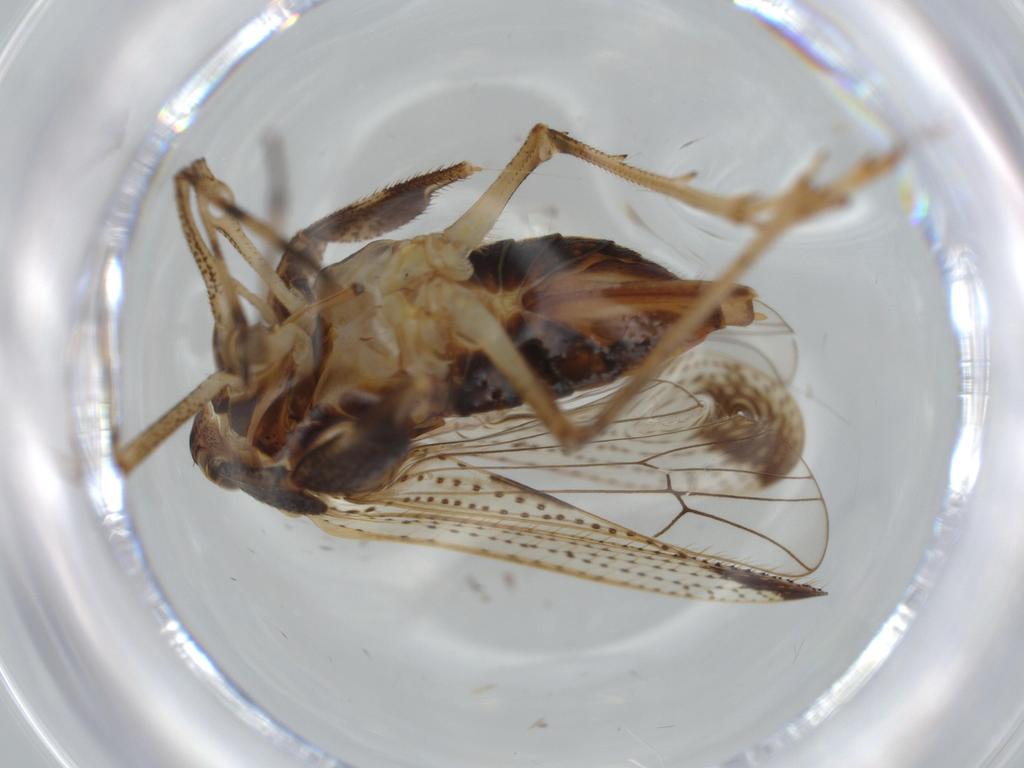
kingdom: Animalia
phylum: Arthropoda
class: Insecta
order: Hemiptera
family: Delphacidae
